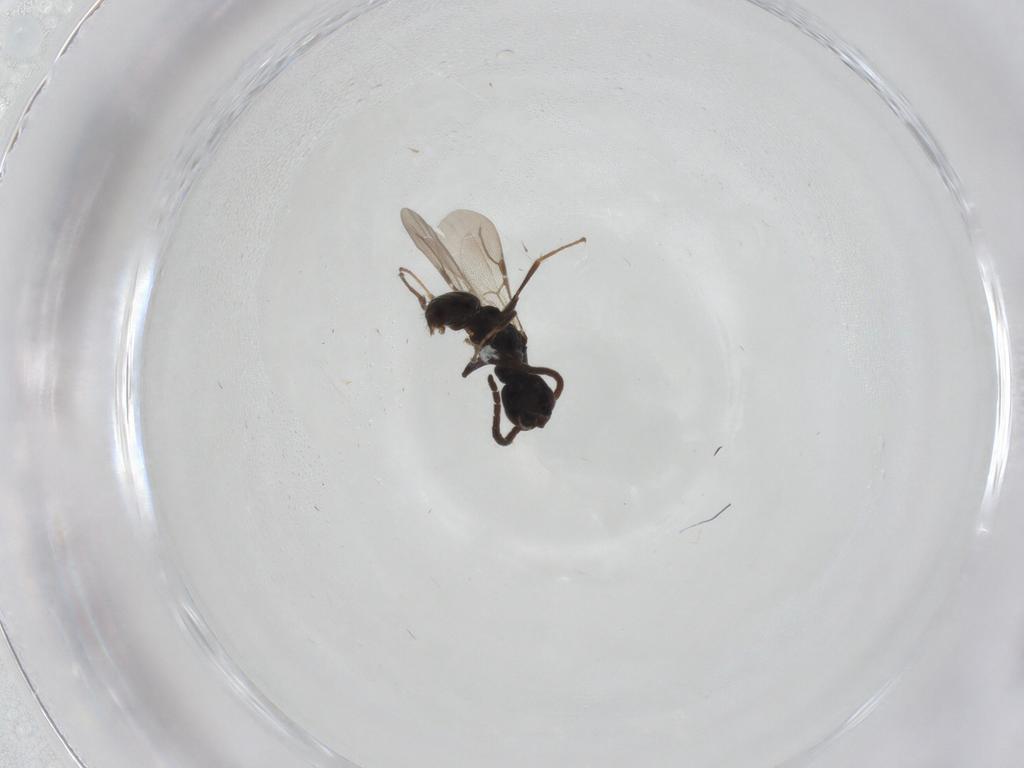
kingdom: Animalia
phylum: Arthropoda
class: Insecta
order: Hymenoptera
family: Bethylidae
